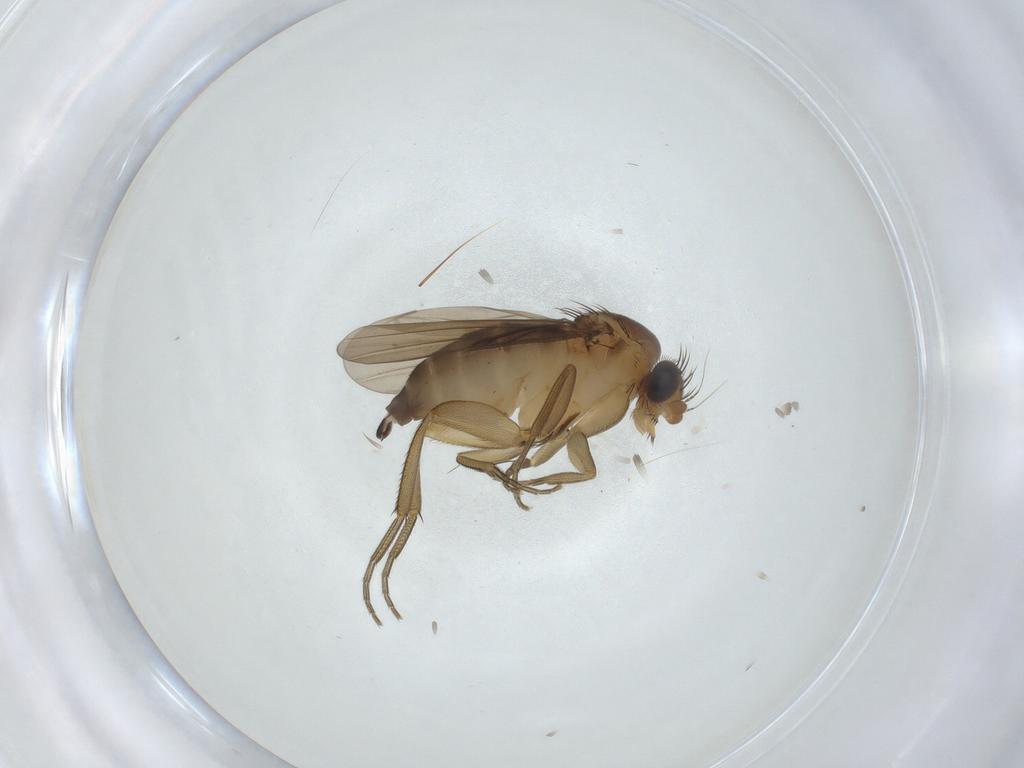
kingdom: Animalia
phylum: Arthropoda
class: Insecta
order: Diptera
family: Phoridae
